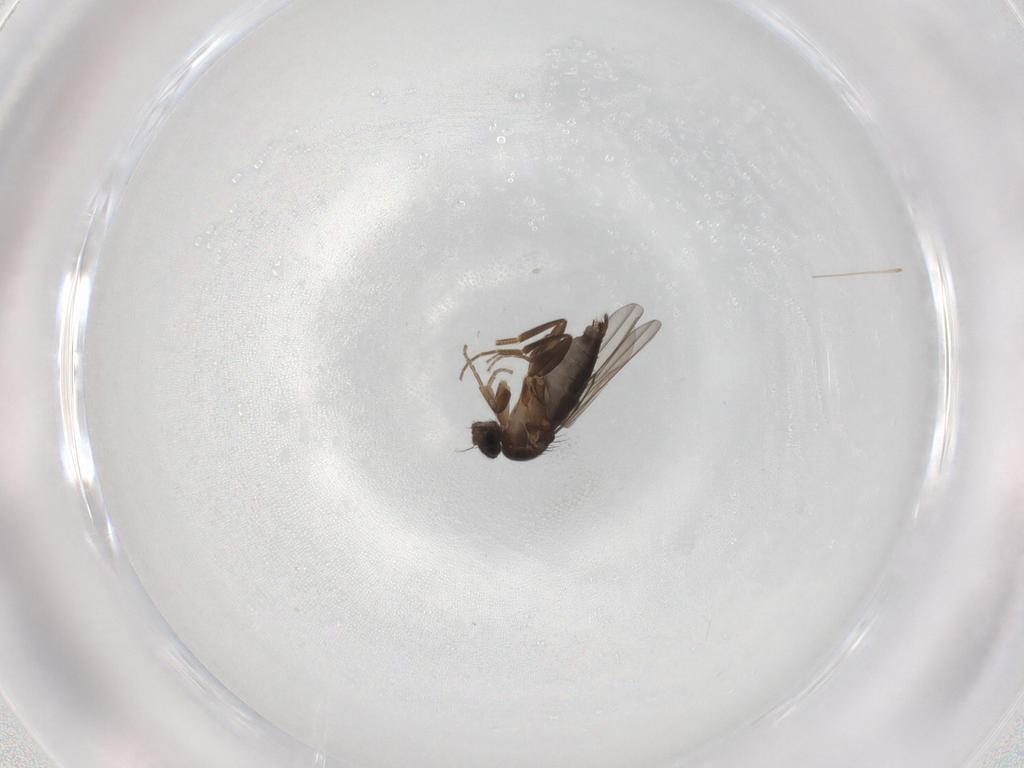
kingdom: Animalia
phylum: Arthropoda
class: Insecta
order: Diptera
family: Phoridae
